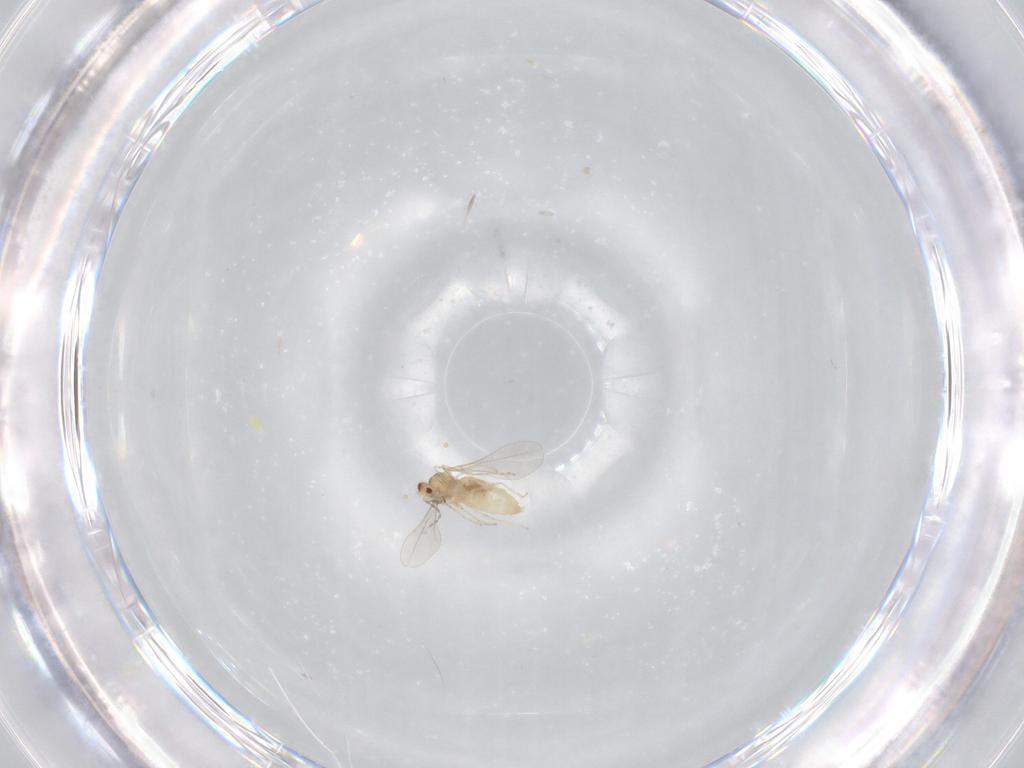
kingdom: Animalia
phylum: Arthropoda
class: Insecta
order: Diptera
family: Cecidomyiidae
